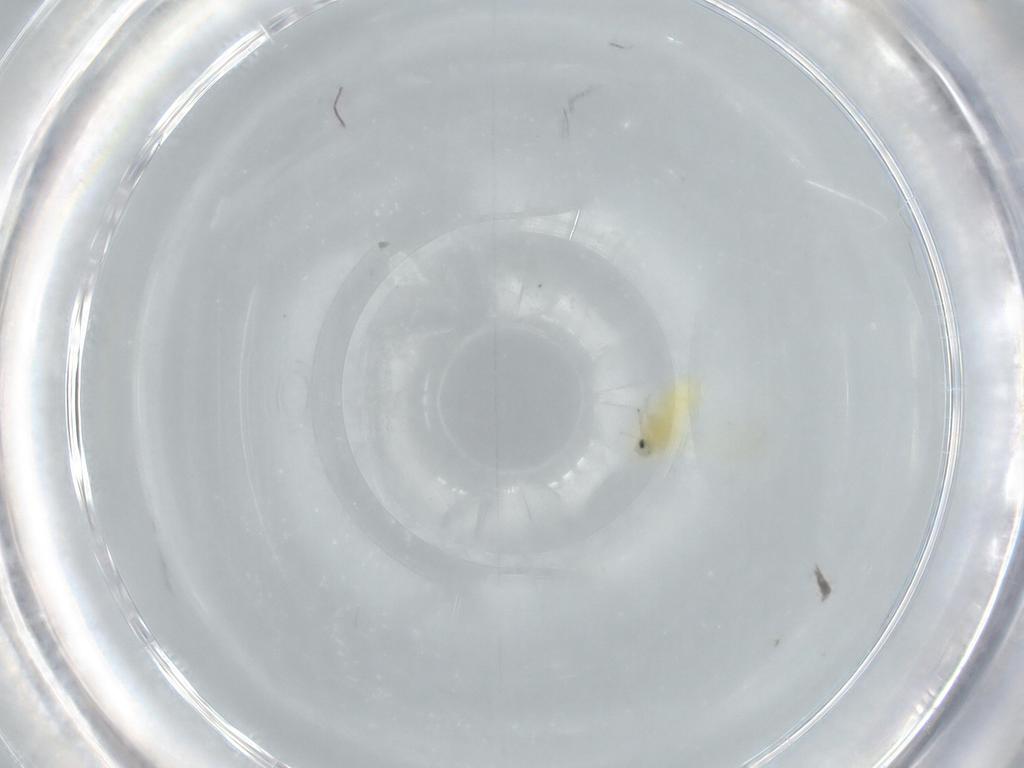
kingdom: Animalia
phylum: Arthropoda
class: Insecta
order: Hemiptera
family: Aleyrodidae
